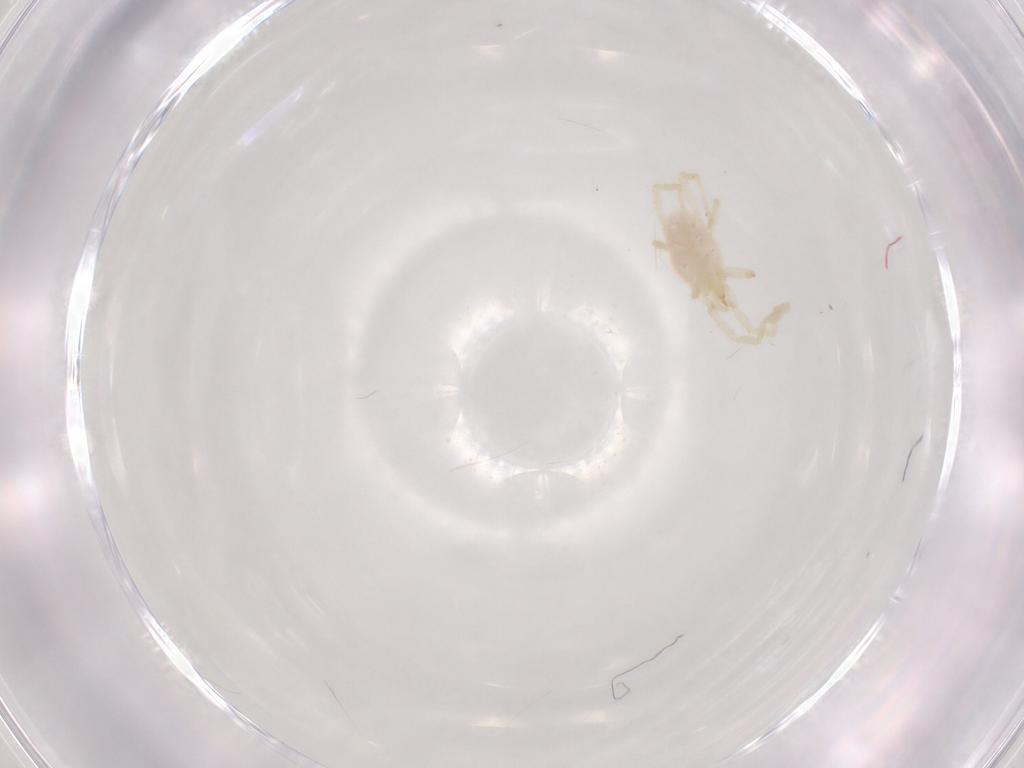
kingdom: Animalia
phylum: Arthropoda
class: Arachnida
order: Trombidiformes
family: Erythraeidae
